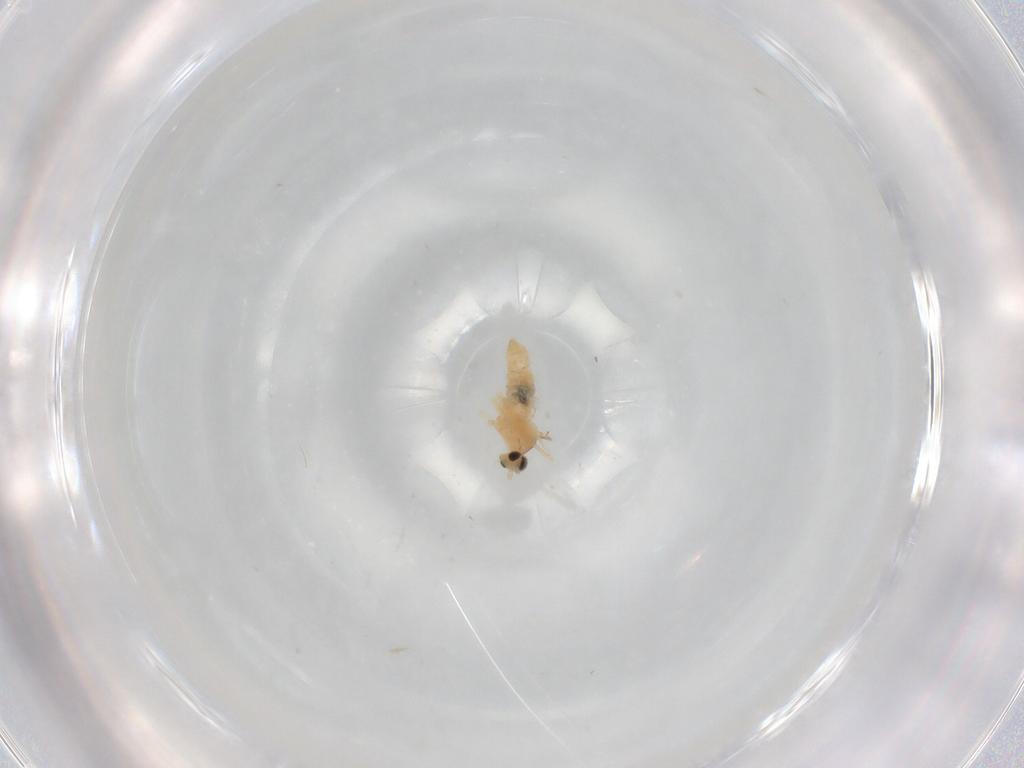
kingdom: Animalia
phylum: Arthropoda
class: Insecta
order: Diptera
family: Cecidomyiidae
